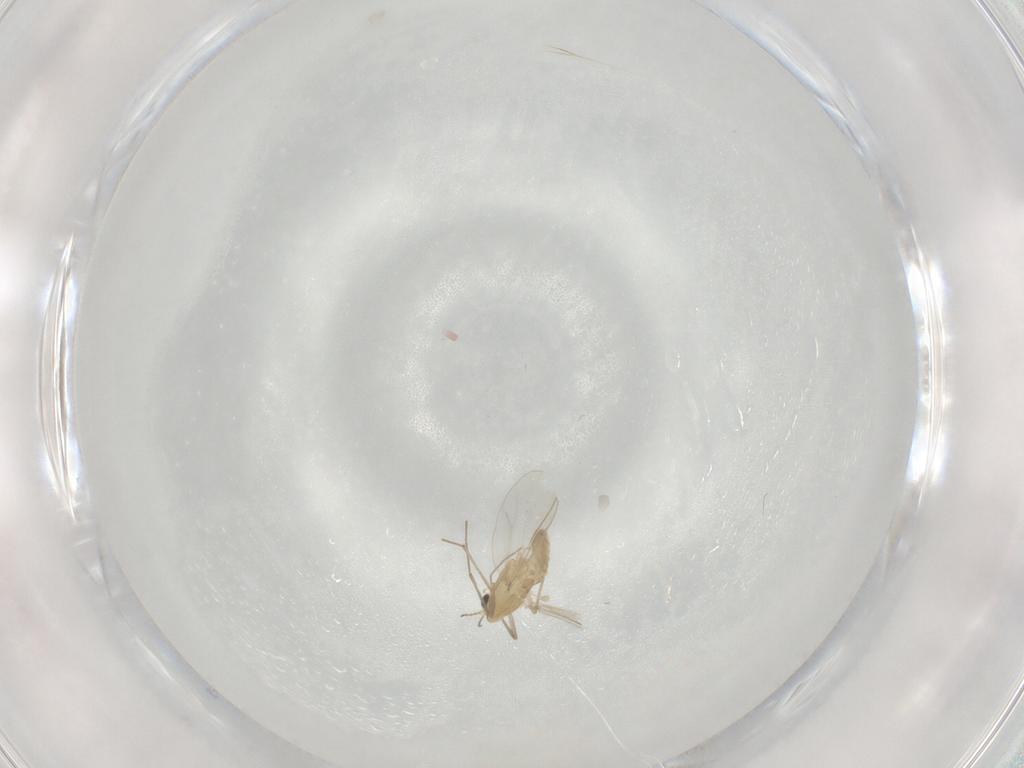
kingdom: Animalia
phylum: Arthropoda
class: Insecta
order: Diptera
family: Chironomidae
